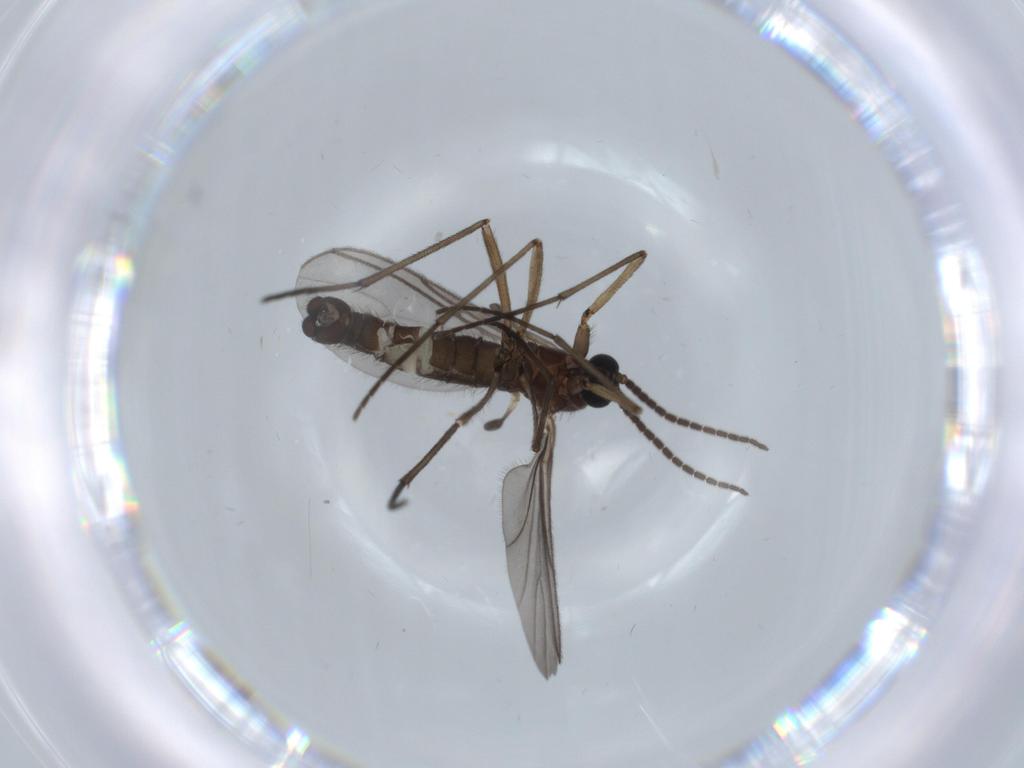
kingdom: Animalia
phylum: Arthropoda
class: Insecta
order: Diptera
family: Sciaridae
